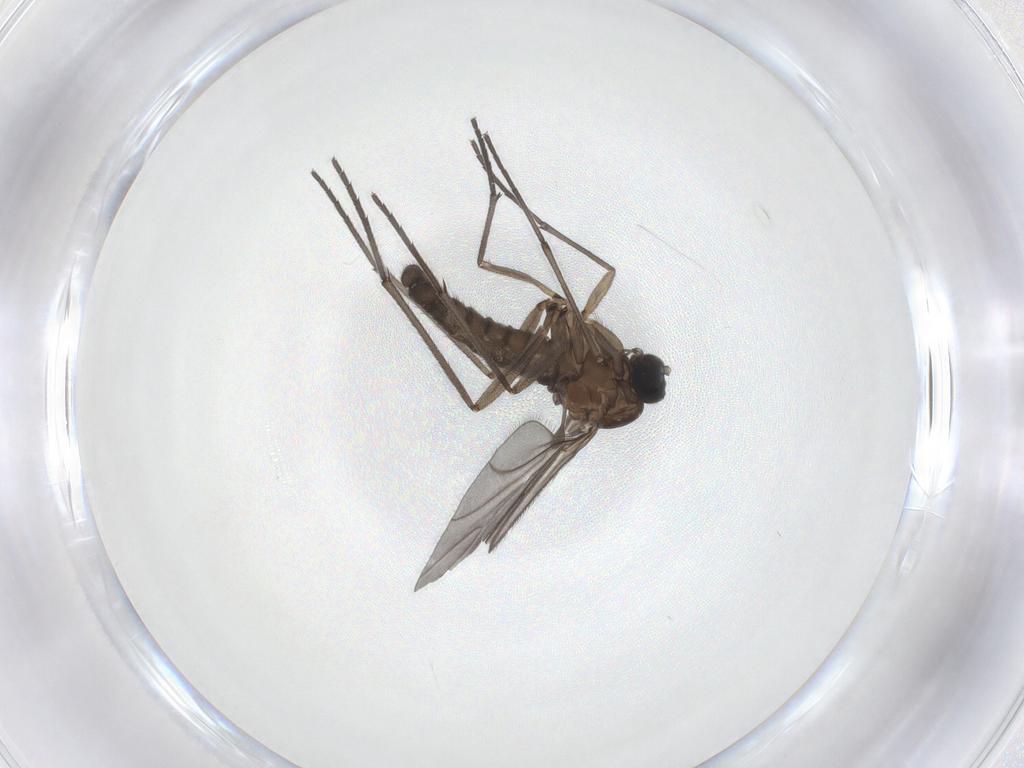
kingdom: Animalia
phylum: Arthropoda
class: Insecta
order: Diptera
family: Sciaridae
